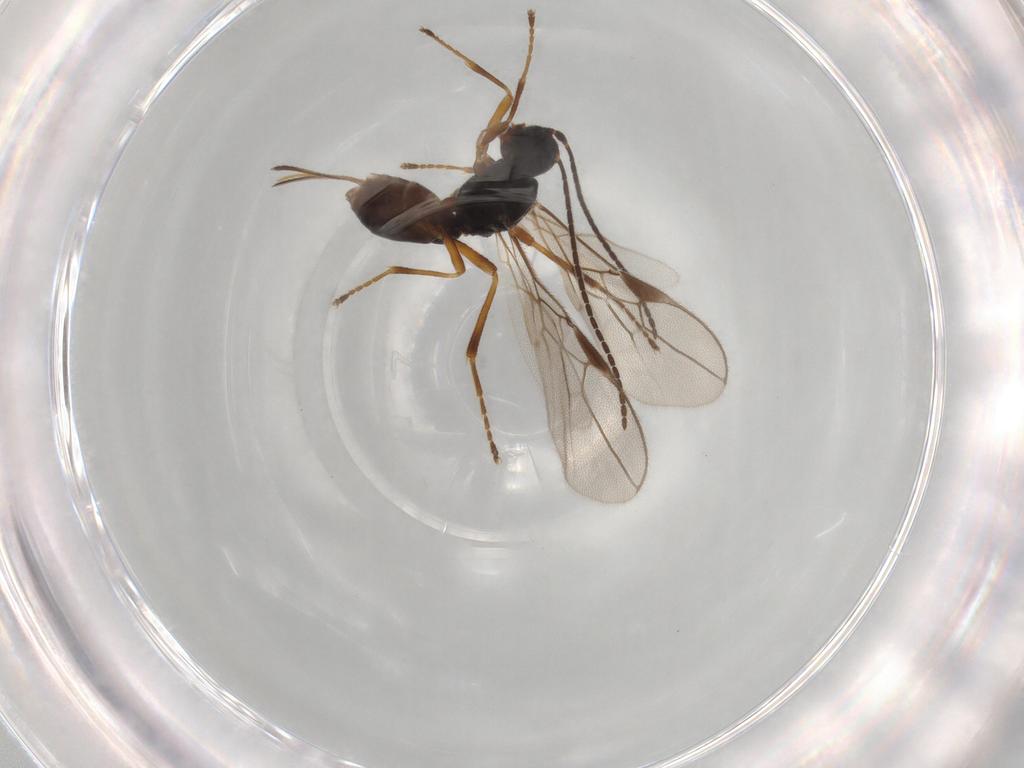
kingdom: Animalia
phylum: Arthropoda
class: Insecta
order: Hymenoptera
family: Braconidae
